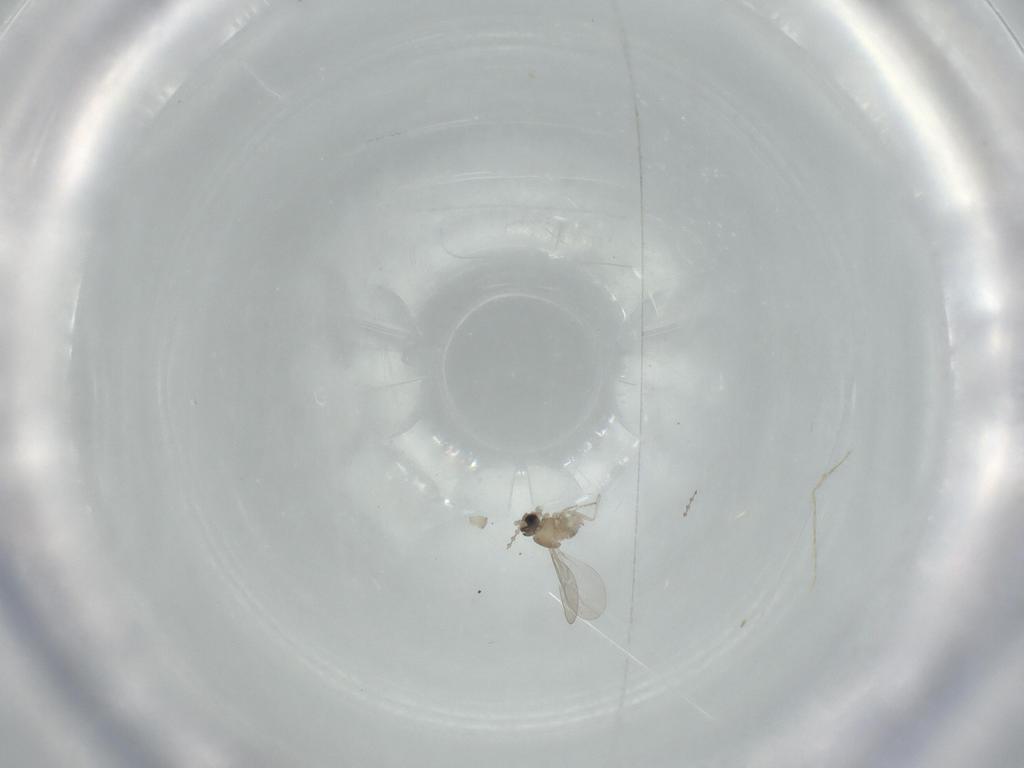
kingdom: Animalia
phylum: Arthropoda
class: Insecta
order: Diptera
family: Cecidomyiidae
